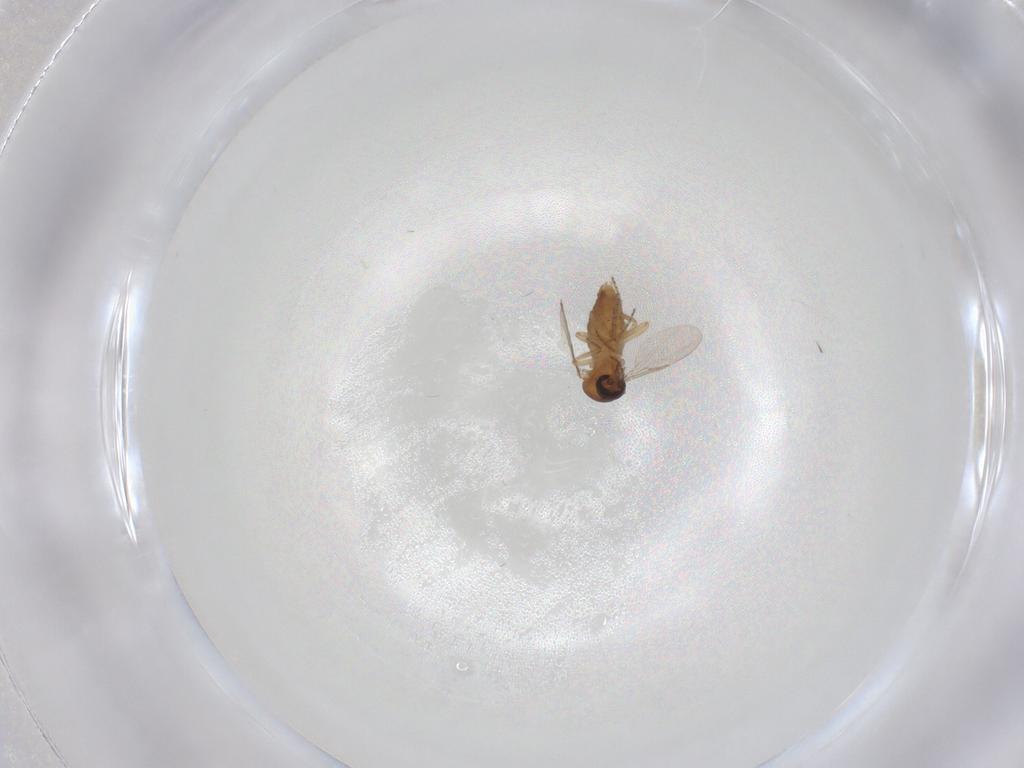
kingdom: Animalia
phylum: Arthropoda
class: Insecta
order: Diptera
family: Ceratopogonidae
